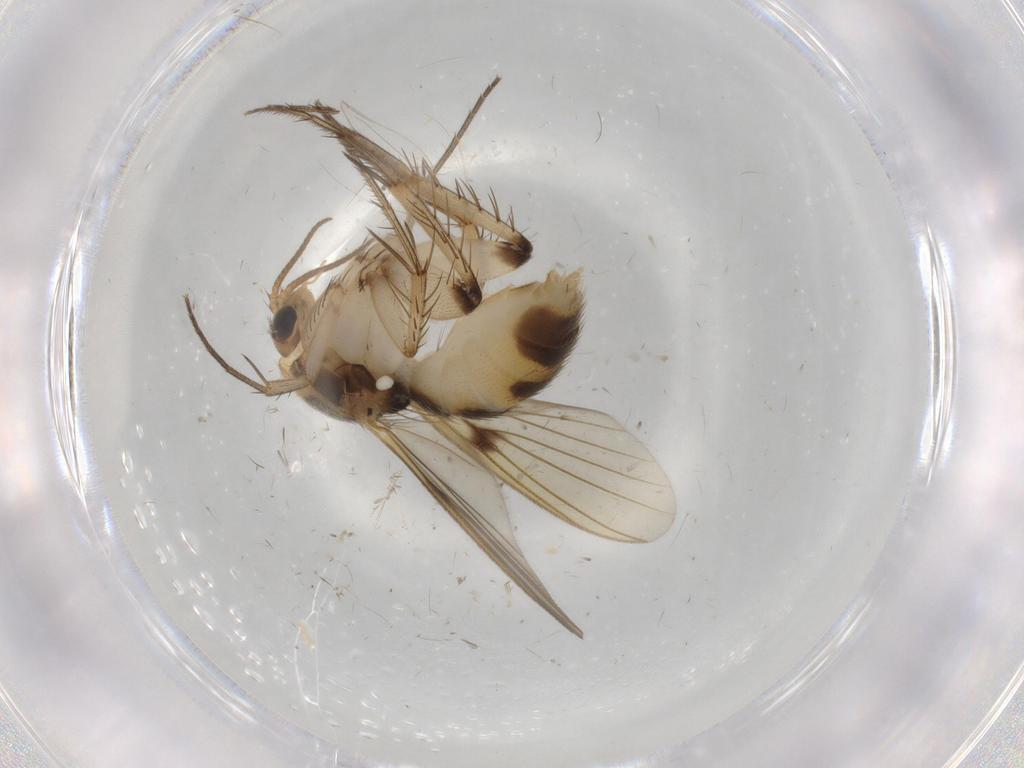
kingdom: Animalia
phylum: Arthropoda
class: Insecta
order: Diptera
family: Mycetophilidae
